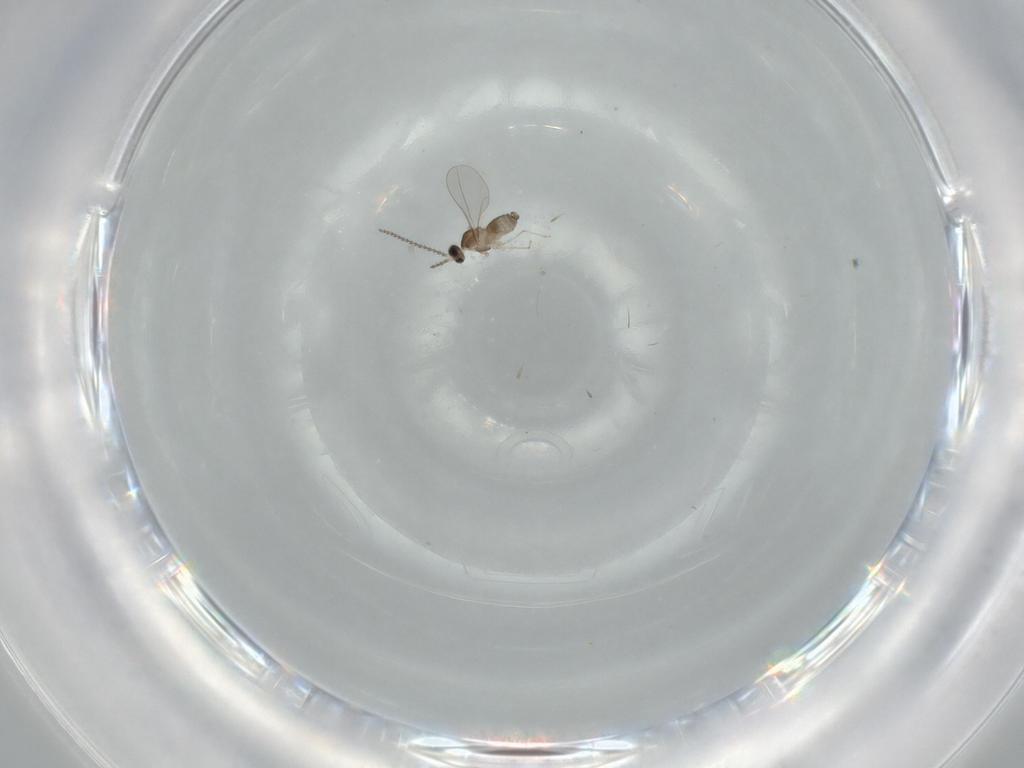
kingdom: Animalia
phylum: Arthropoda
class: Insecta
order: Diptera
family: Cecidomyiidae
